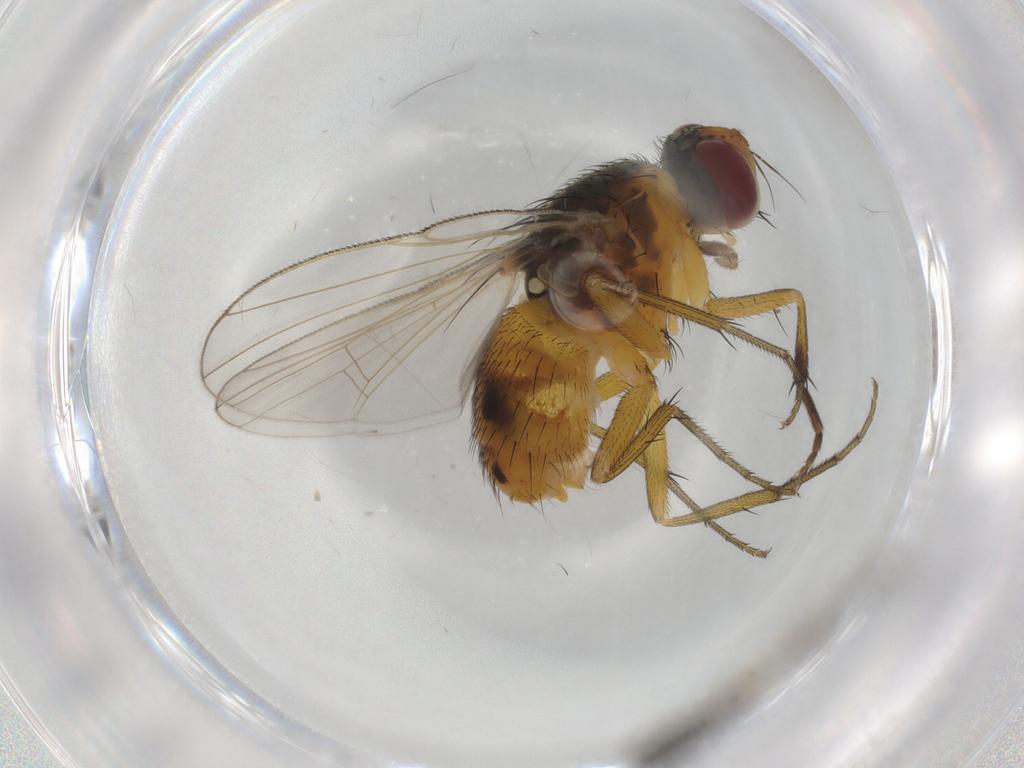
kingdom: Animalia
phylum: Arthropoda
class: Insecta
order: Diptera
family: Muscidae
